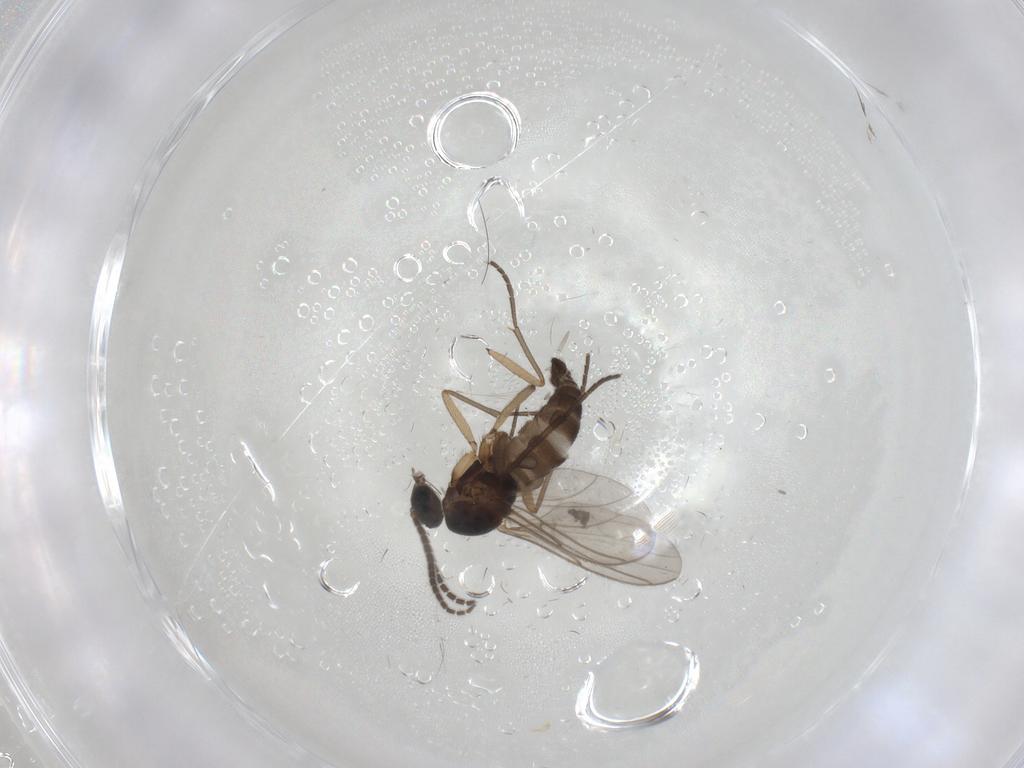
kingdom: Animalia
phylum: Arthropoda
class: Insecta
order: Diptera
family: Sciaridae
